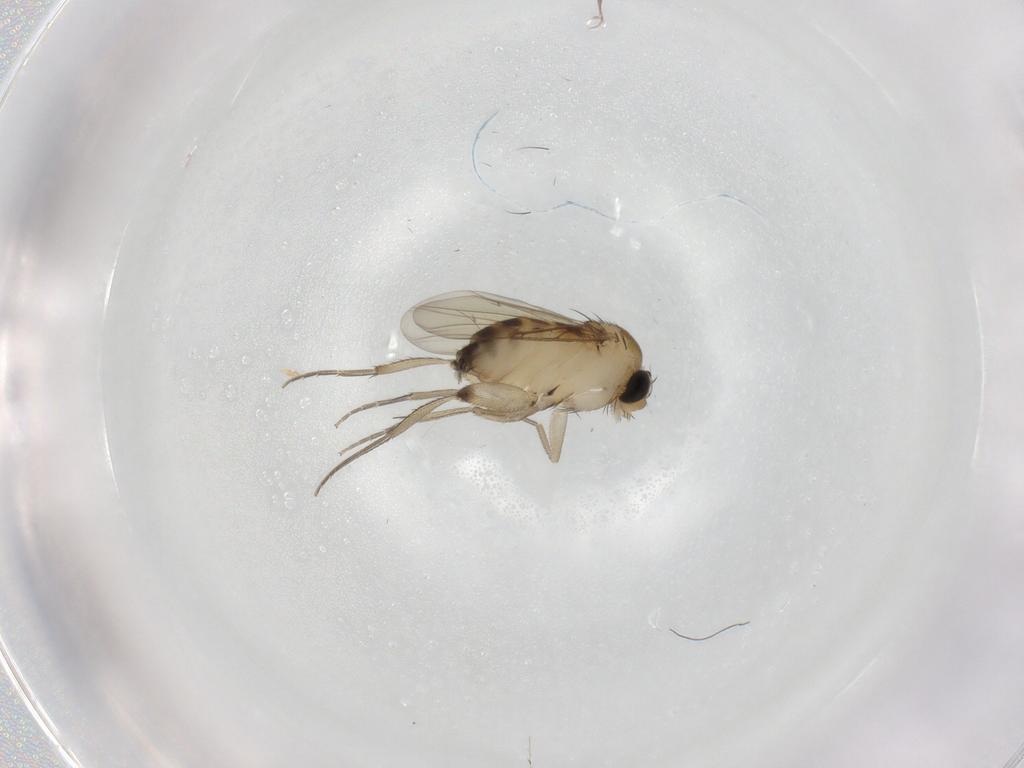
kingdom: Animalia
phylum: Arthropoda
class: Insecta
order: Diptera
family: Phoridae
